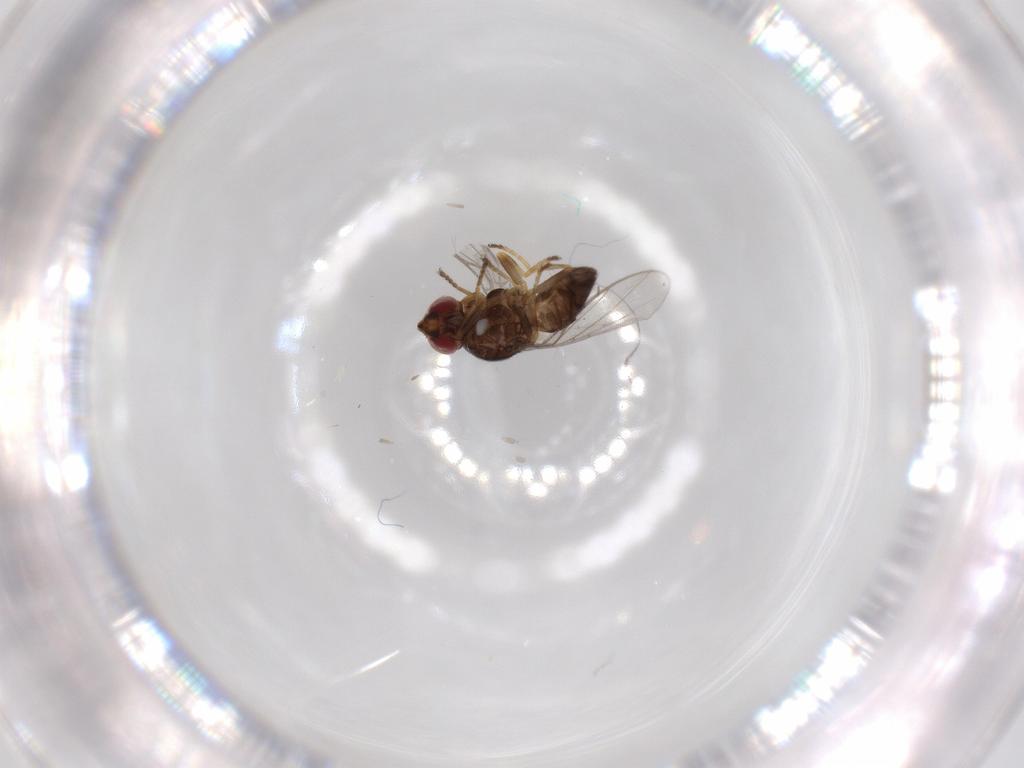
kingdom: Animalia
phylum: Arthropoda
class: Insecta
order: Diptera
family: Chloropidae
